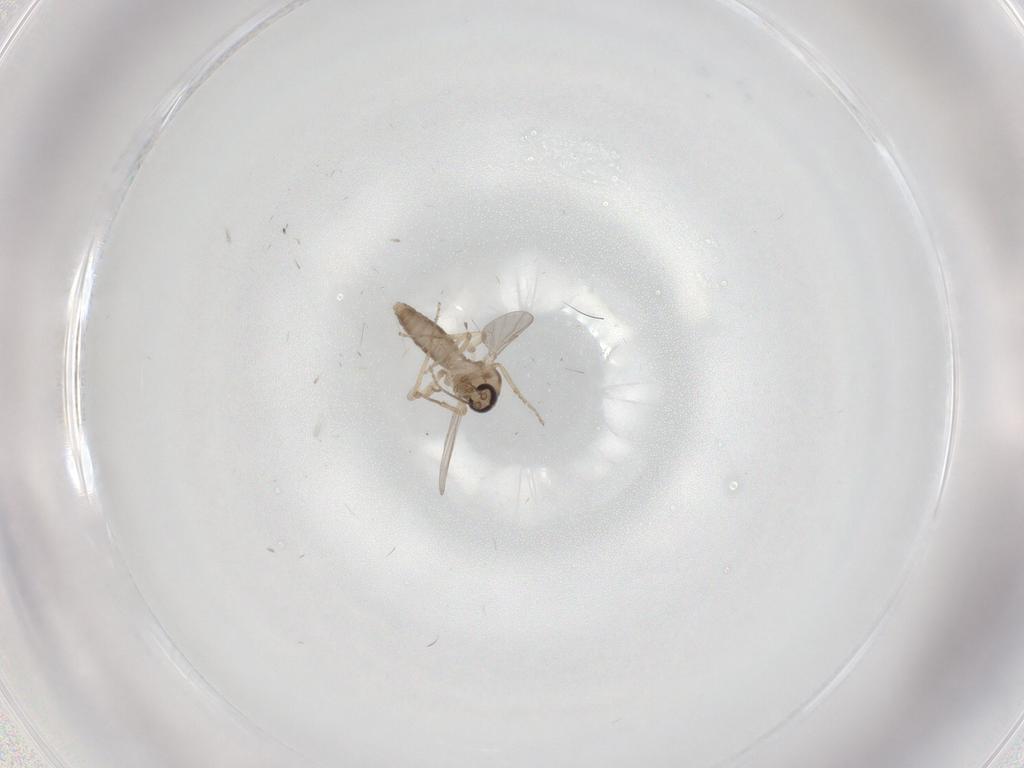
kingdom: Animalia
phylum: Arthropoda
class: Insecta
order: Diptera
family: Ceratopogonidae
